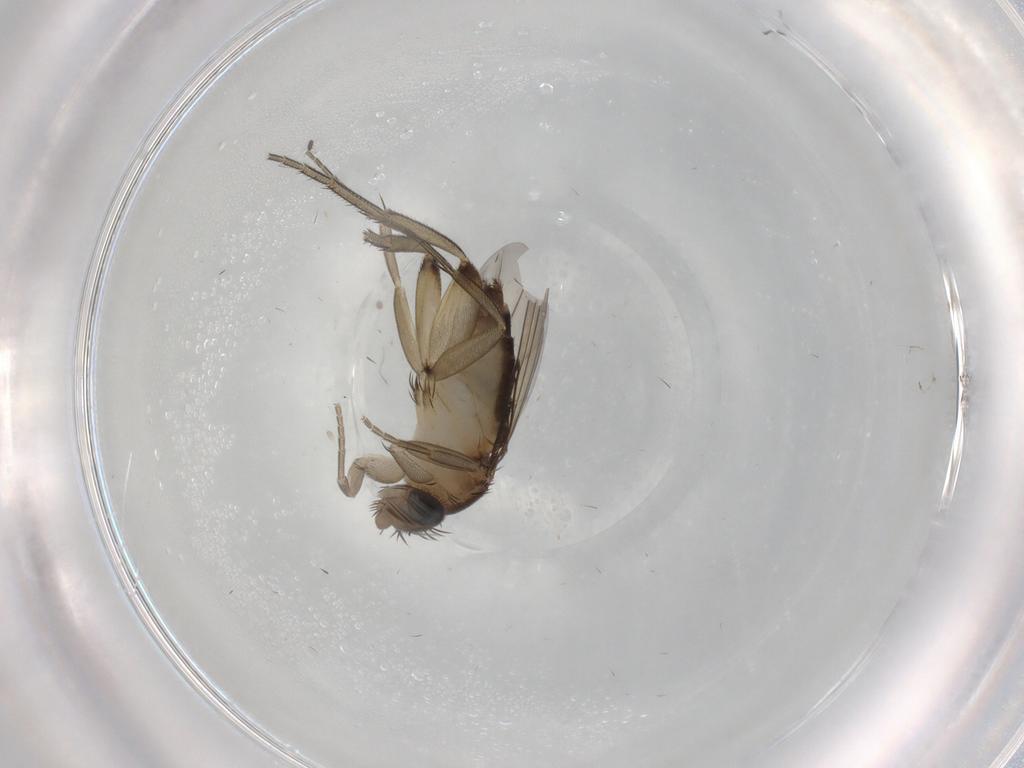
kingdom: Animalia
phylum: Arthropoda
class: Insecta
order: Diptera
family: Phoridae
